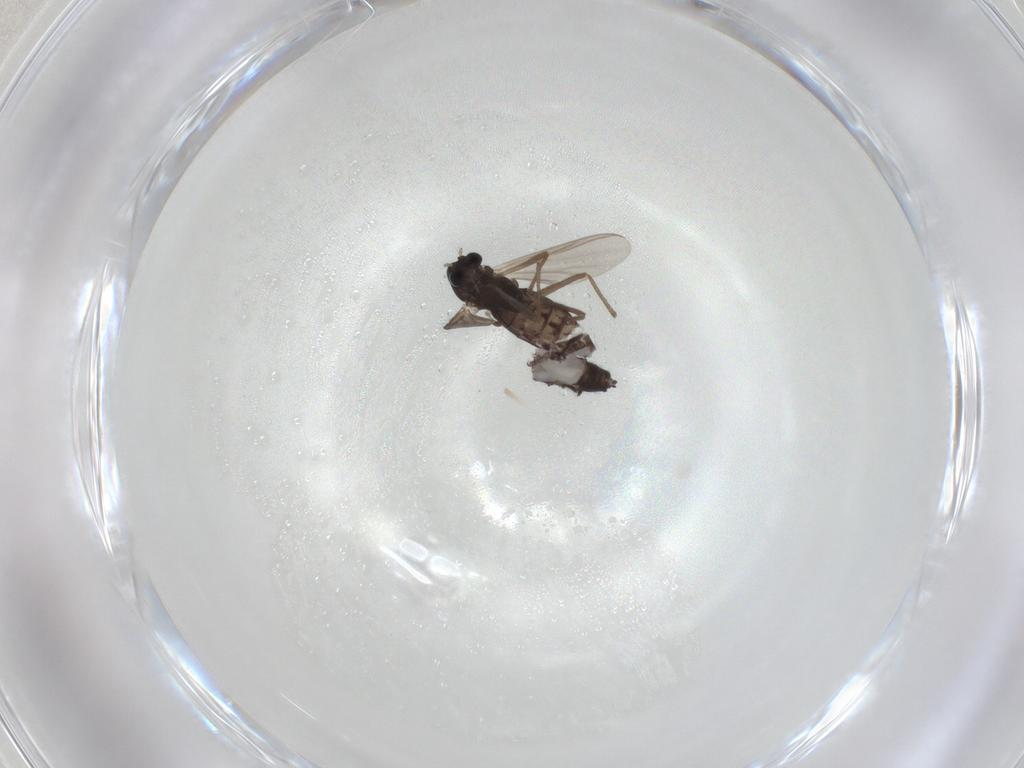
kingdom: Animalia
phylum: Arthropoda
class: Insecta
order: Diptera
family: Chironomidae
